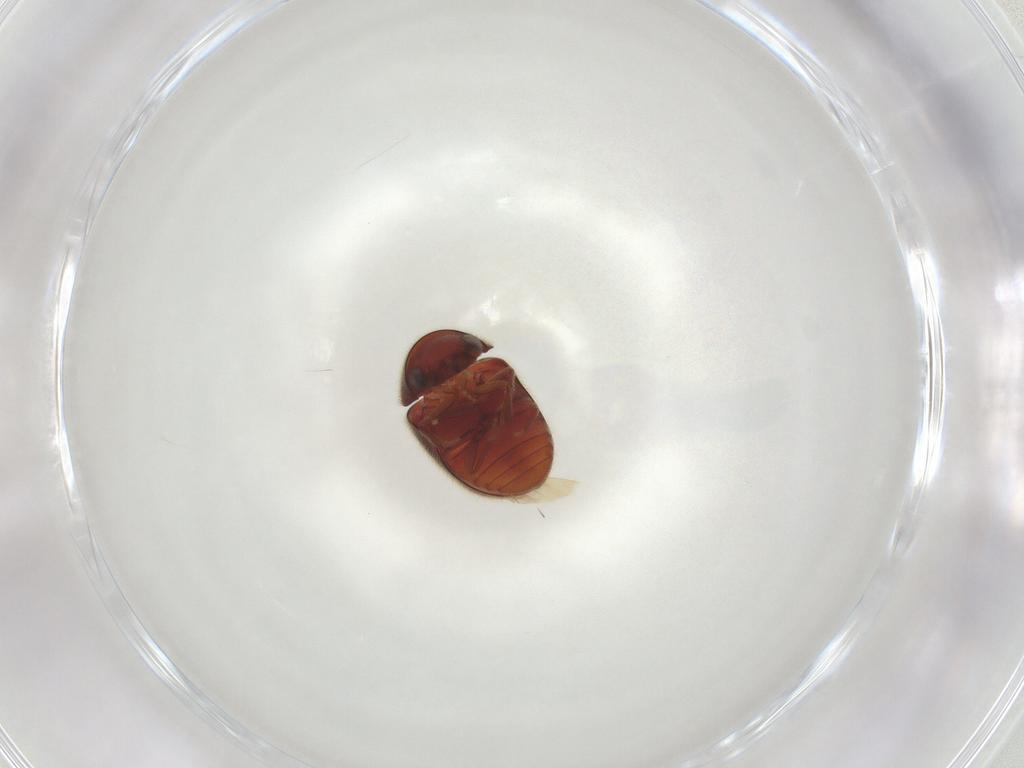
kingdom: Animalia
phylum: Arthropoda
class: Insecta
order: Coleoptera
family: Ptinidae
